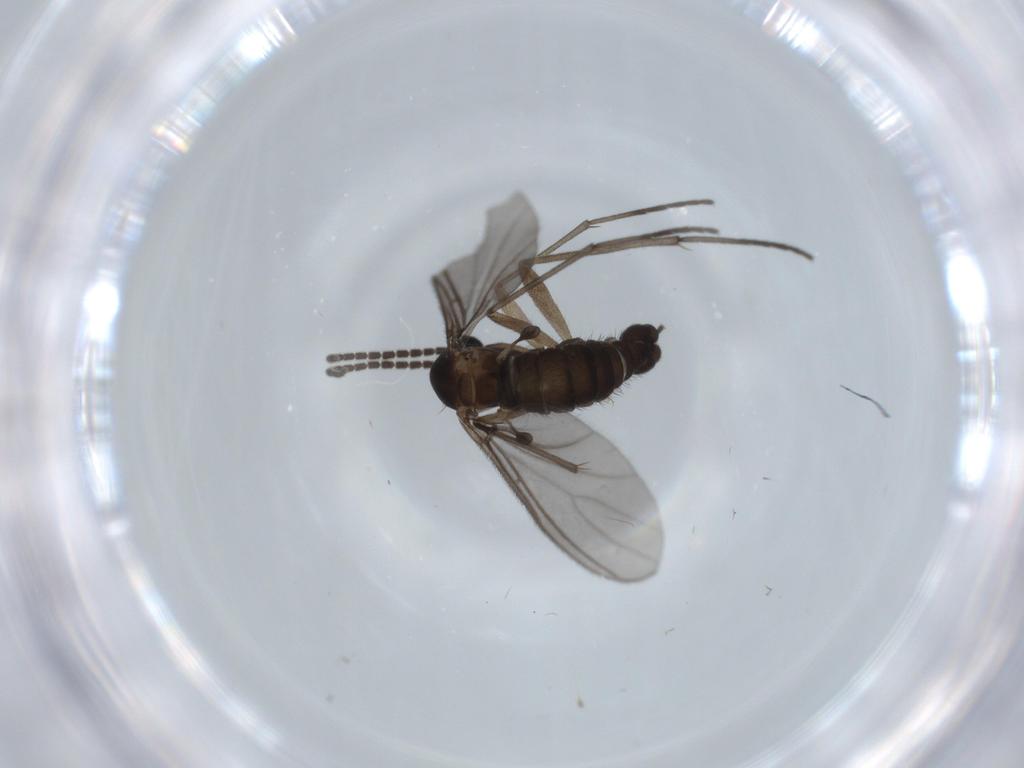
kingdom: Animalia
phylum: Arthropoda
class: Insecta
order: Diptera
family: Sciaridae
